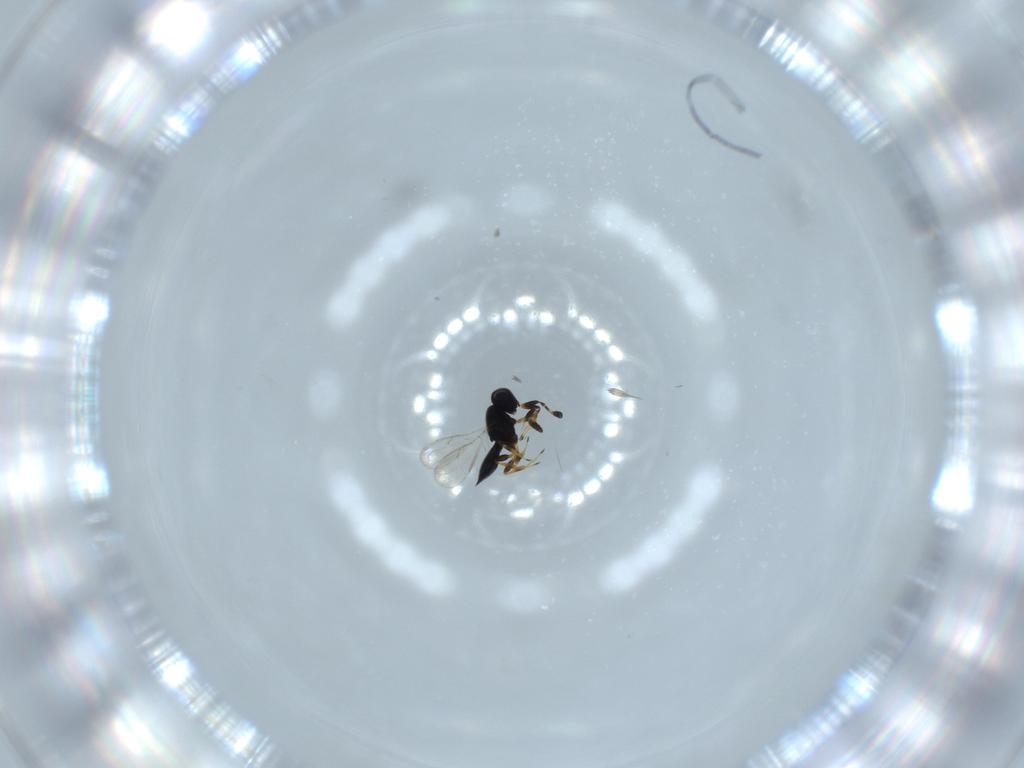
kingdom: Animalia
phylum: Arthropoda
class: Insecta
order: Hymenoptera
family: Scelionidae
